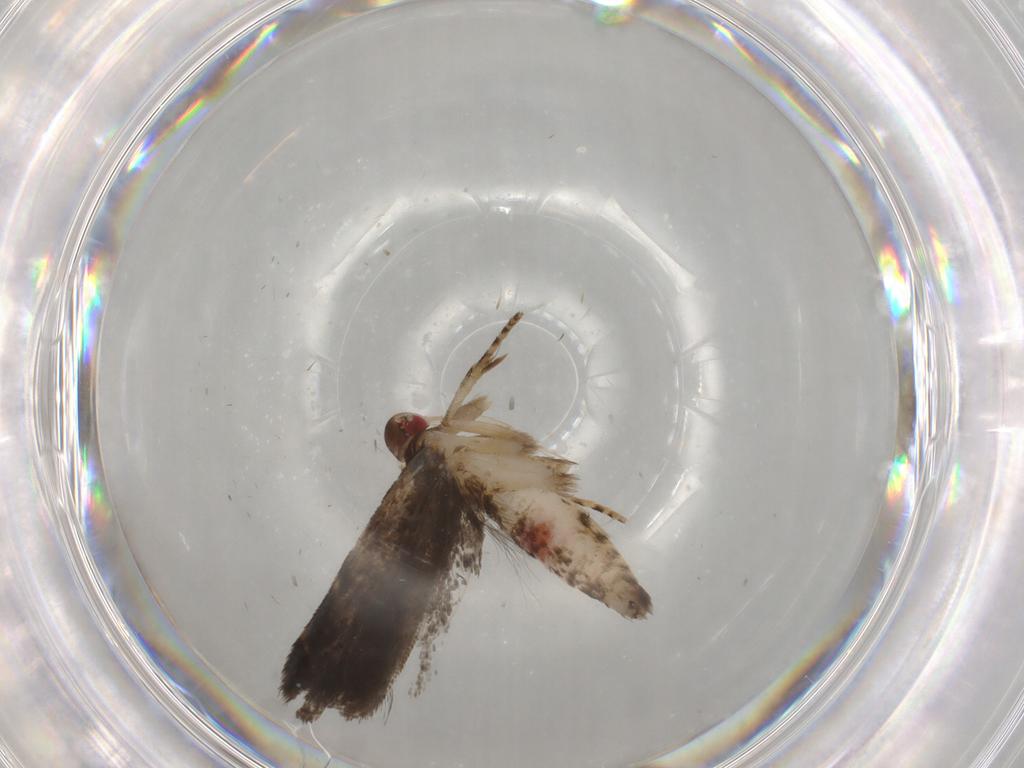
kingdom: Animalia
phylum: Arthropoda
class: Insecta
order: Lepidoptera
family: Gelechiidae
